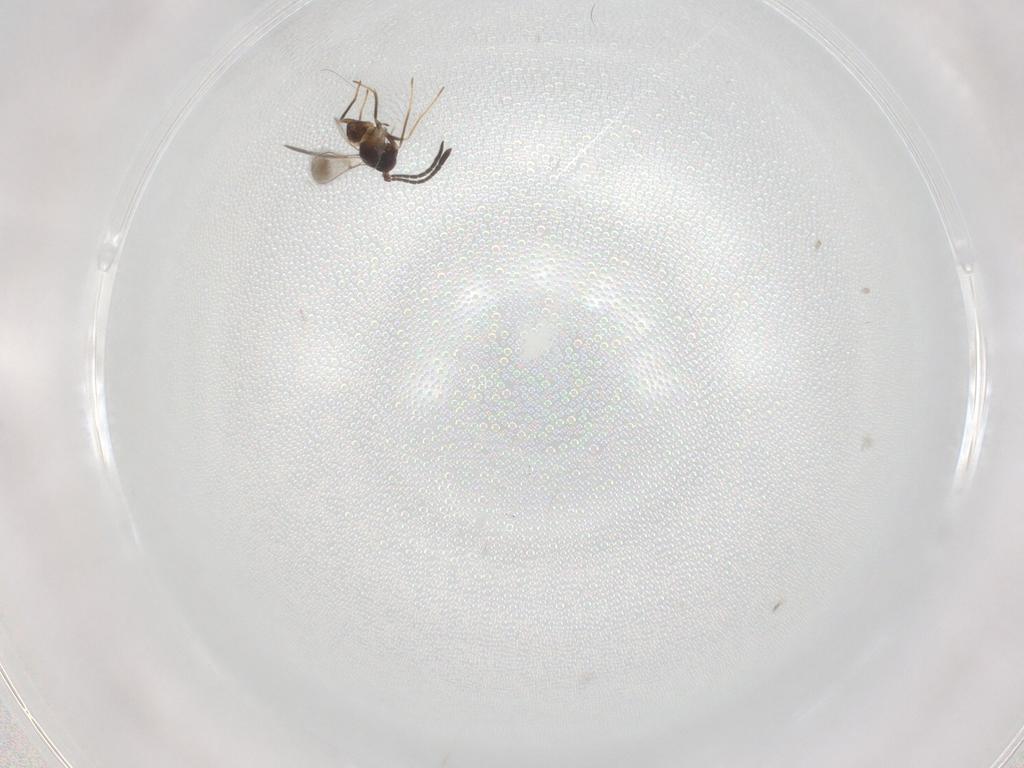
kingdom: Animalia
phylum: Arthropoda
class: Insecta
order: Hymenoptera
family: Mymaridae
